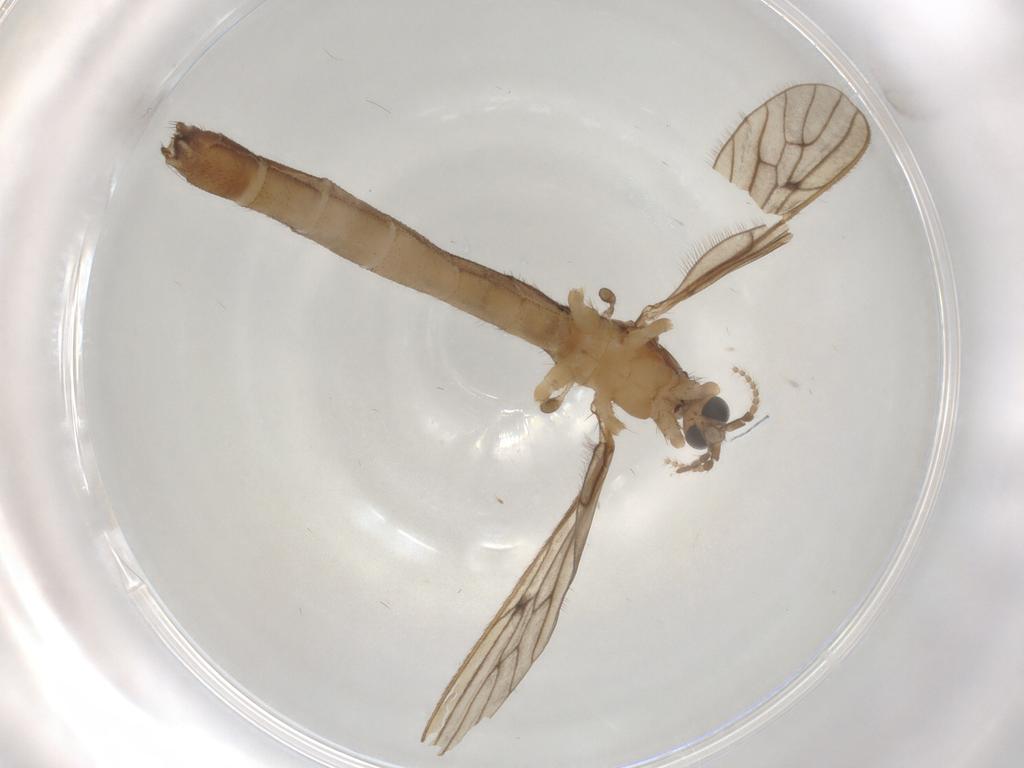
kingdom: Animalia
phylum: Arthropoda
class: Insecta
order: Diptera
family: Limoniidae
